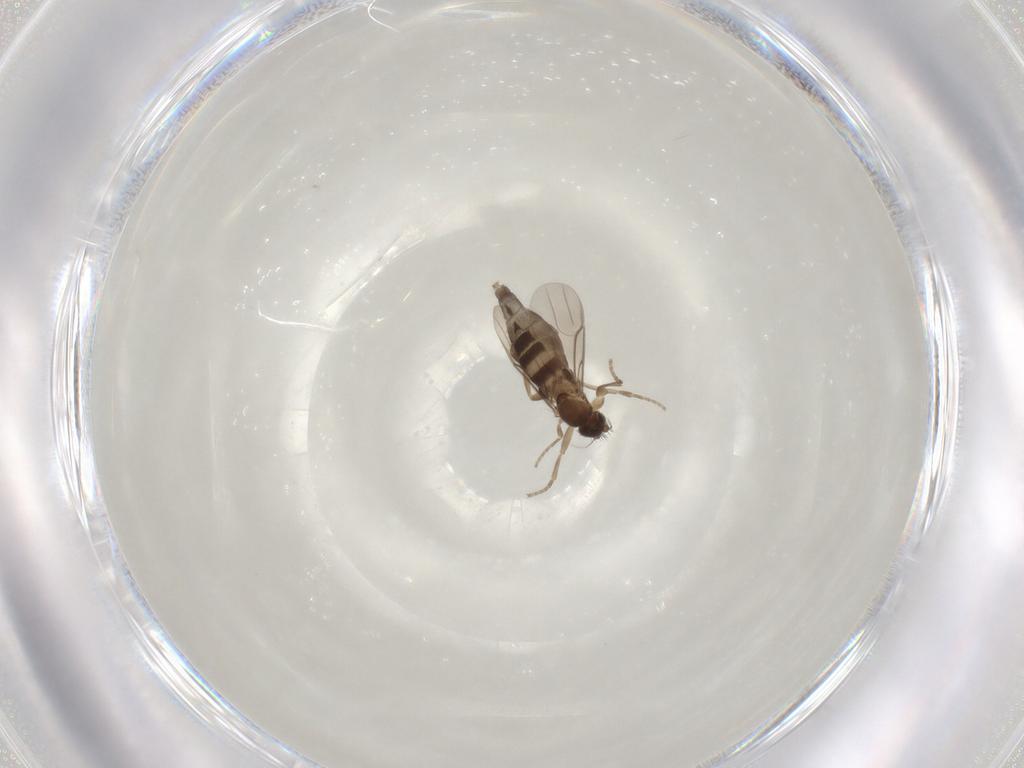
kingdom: Animalia
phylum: Arthropoda
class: Insecta
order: Diptera
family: Phoridae
